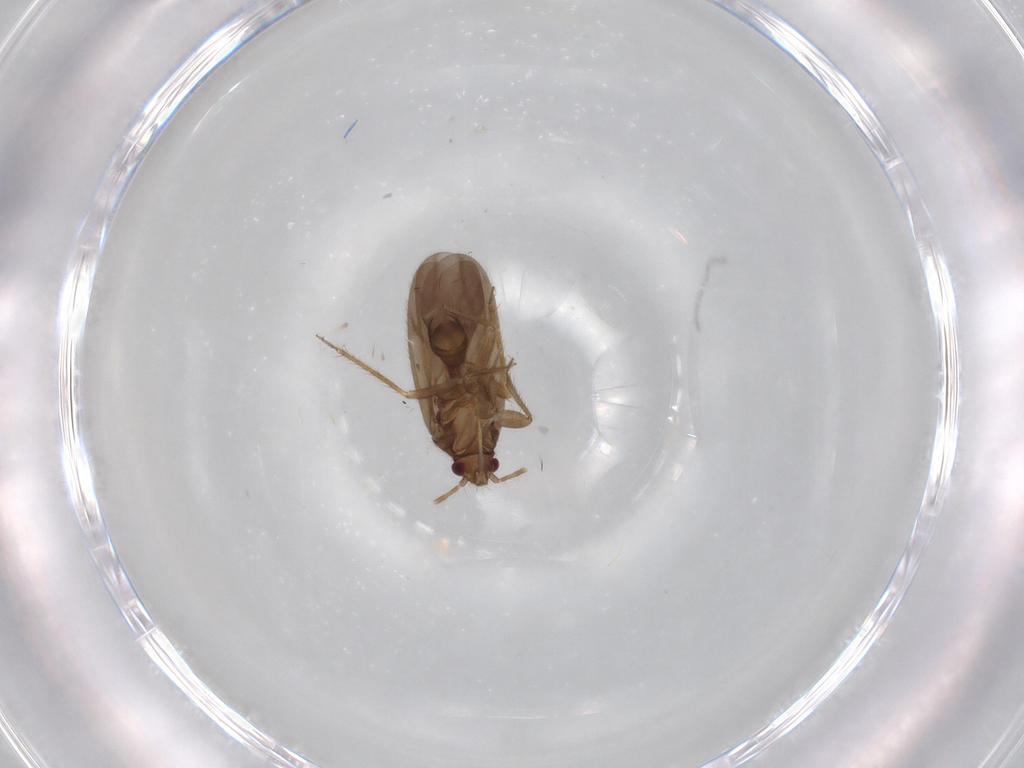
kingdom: Animalia
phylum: Arthropoda
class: Insecta
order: Hemiptera
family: Ceratocombidae
